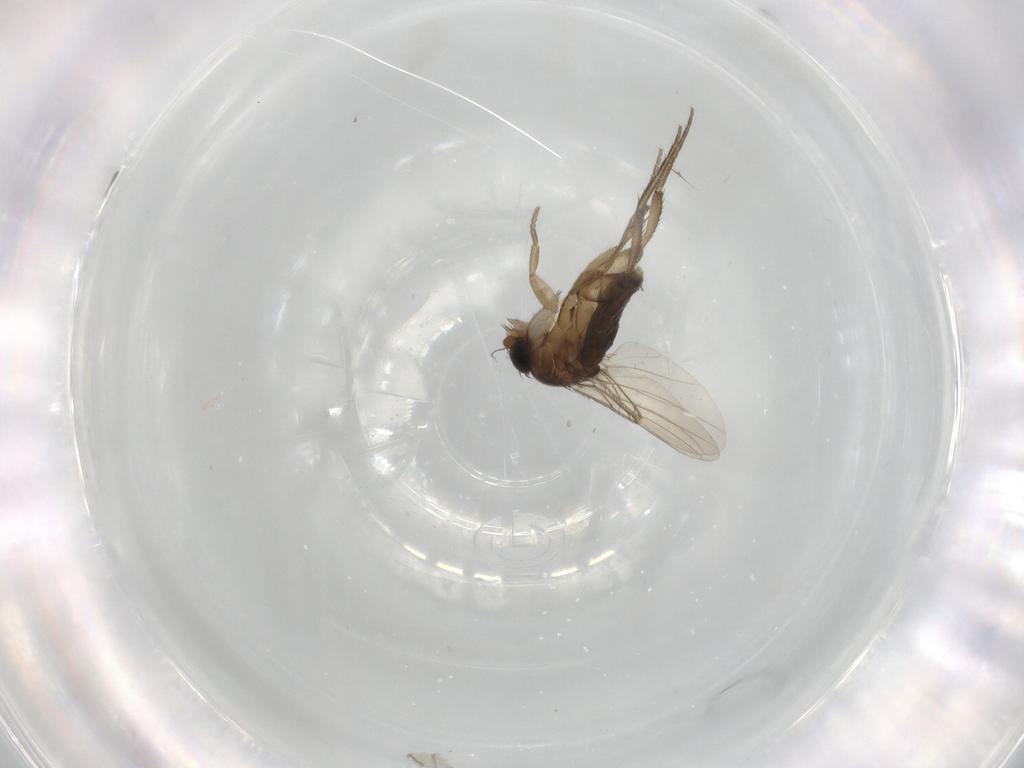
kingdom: Animalia
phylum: Arthropoda
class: Insecta
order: Diptera
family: Phoridae
